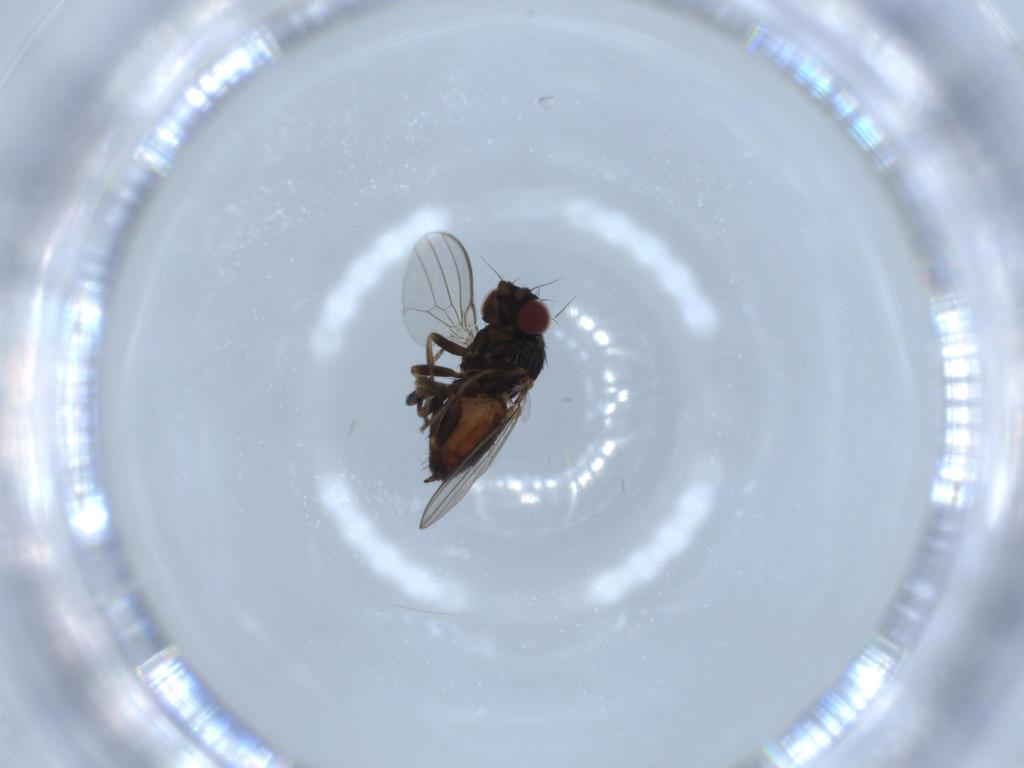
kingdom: Animalia
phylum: Arthropoda
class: Insecta
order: Diptera
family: Milichiidae
